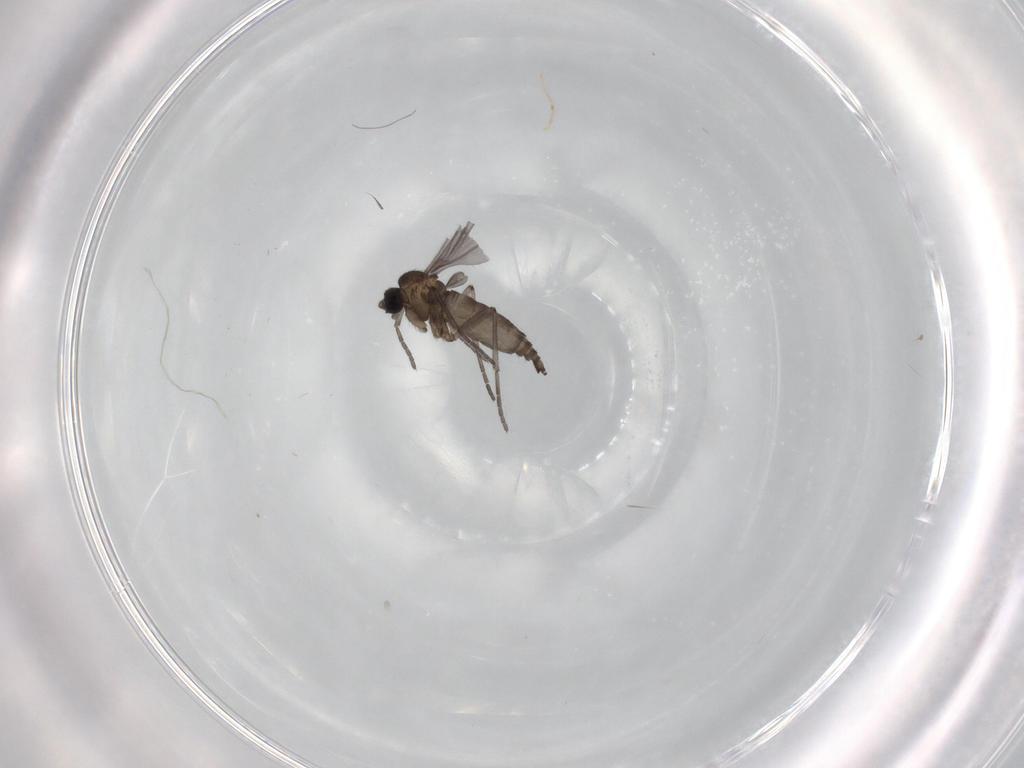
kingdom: Animalia
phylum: Arthropoda
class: Insecta
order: Diptera
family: Sciaridae
